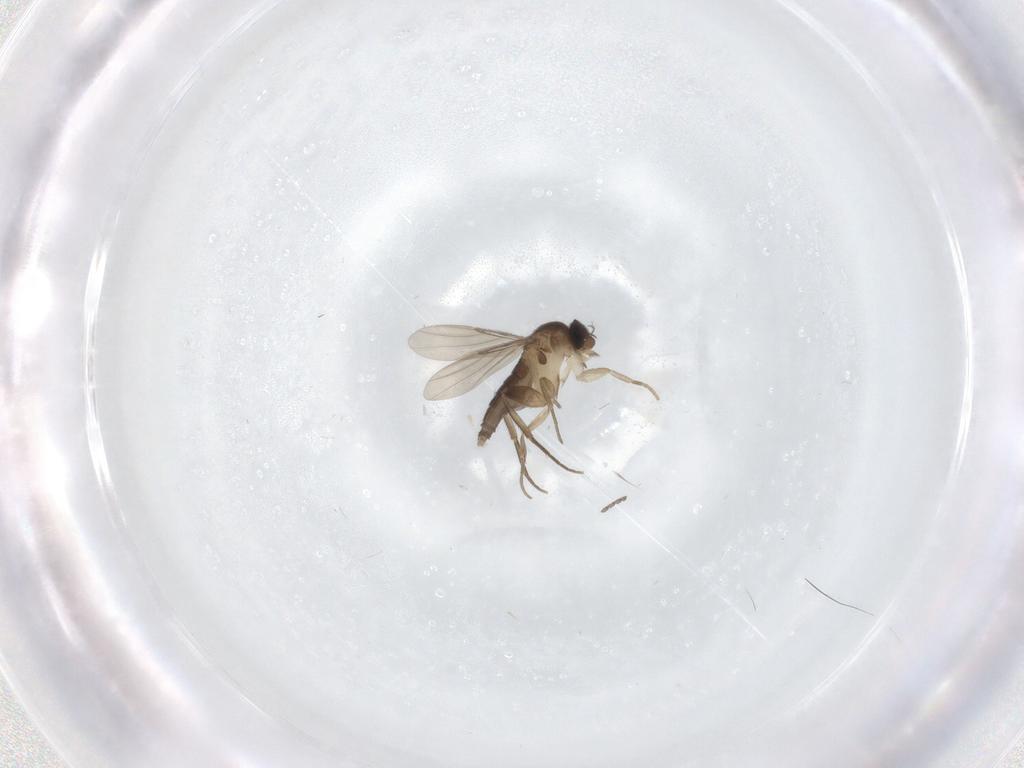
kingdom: Animalia
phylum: Arthropoda
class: Insecta
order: Diptera
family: Phoridae
